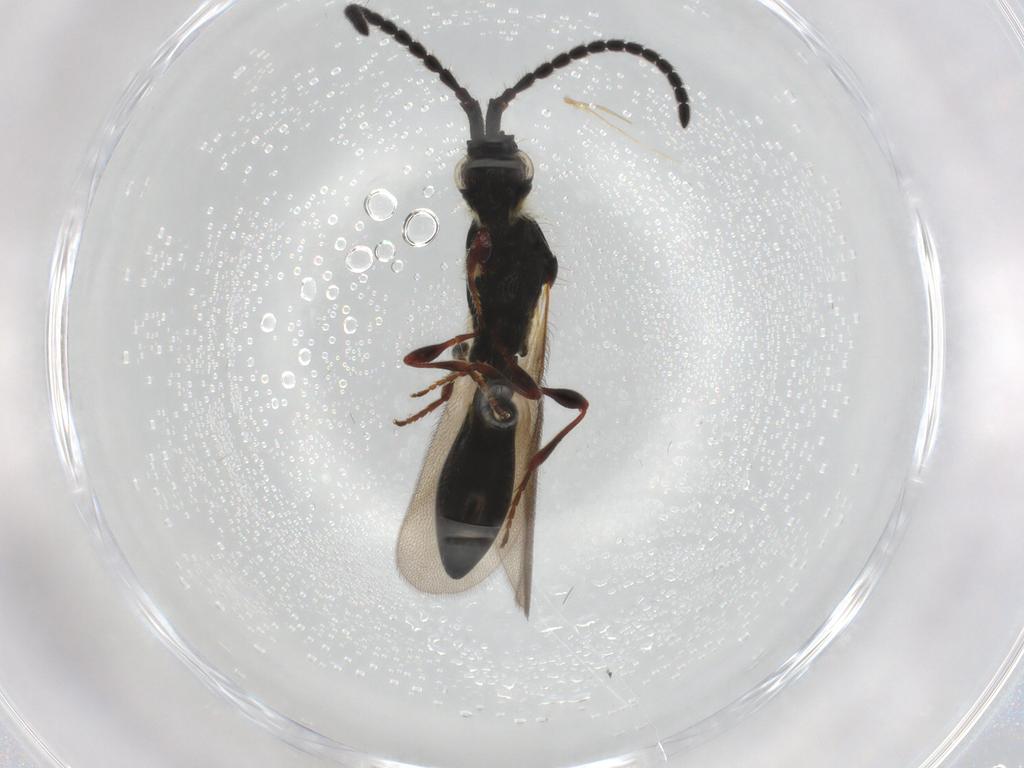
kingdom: Animalia
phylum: Arthropoda
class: Insecta
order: Hymenoptera
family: Diapriidae
